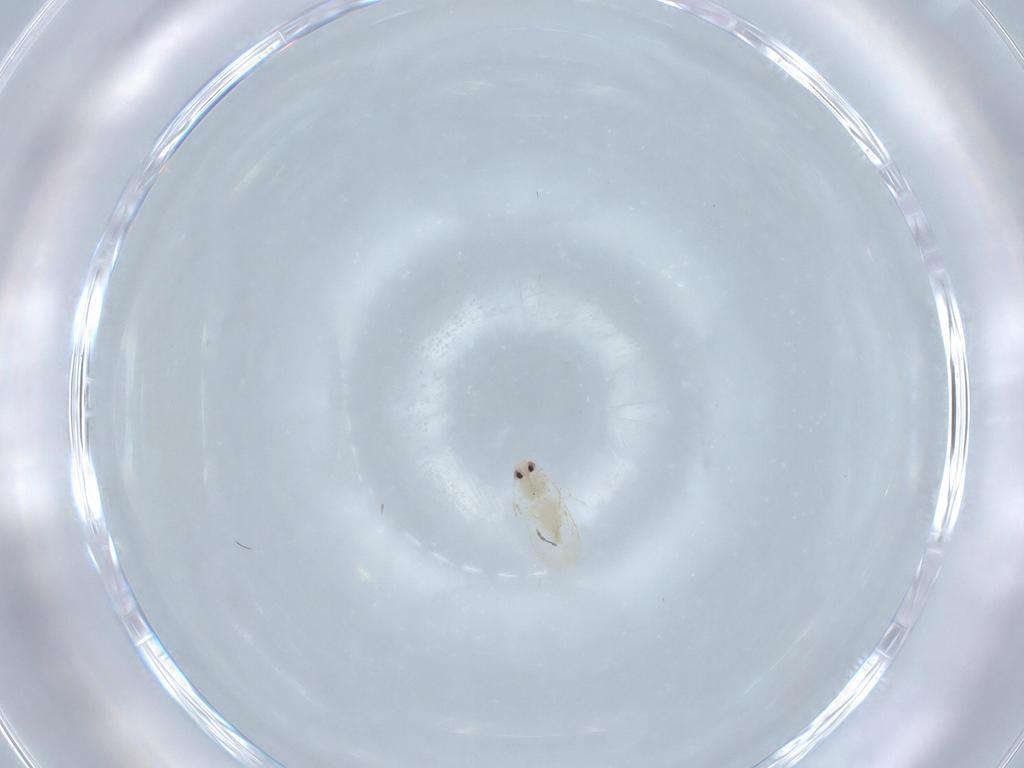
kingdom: Animalia
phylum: Arthropoda
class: Insecta
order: Hemiptera
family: Aleyrodidae
